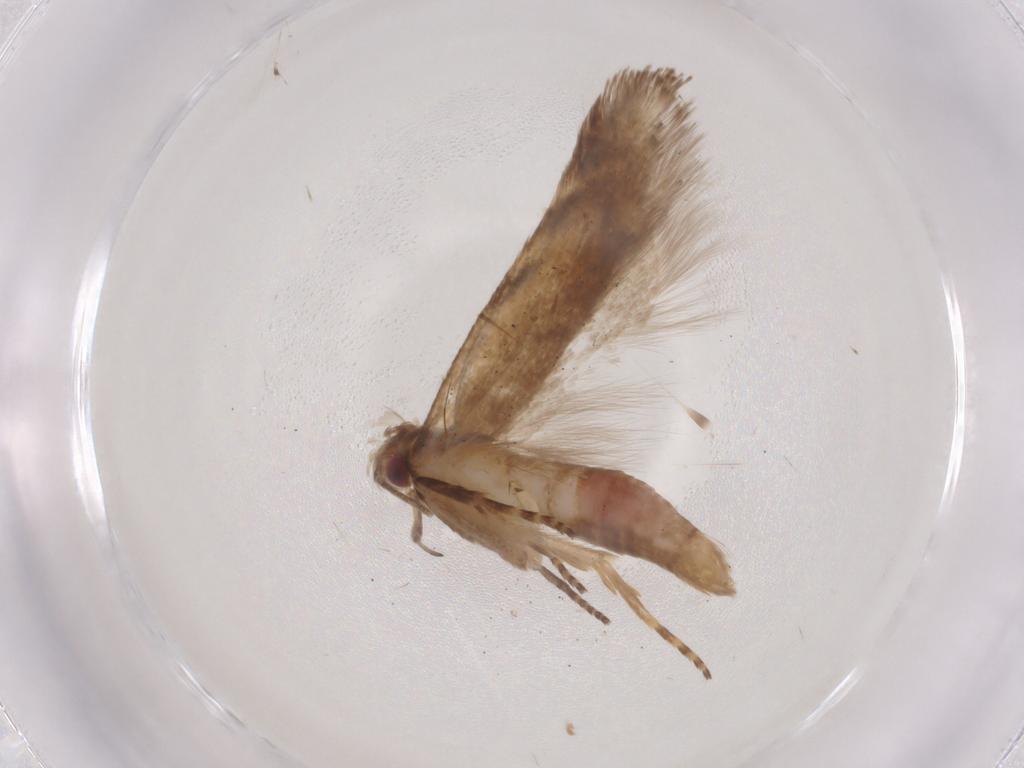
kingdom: Animalia
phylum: Arthropoda
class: Insecta
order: Lepidoptera
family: Gelechiidae
